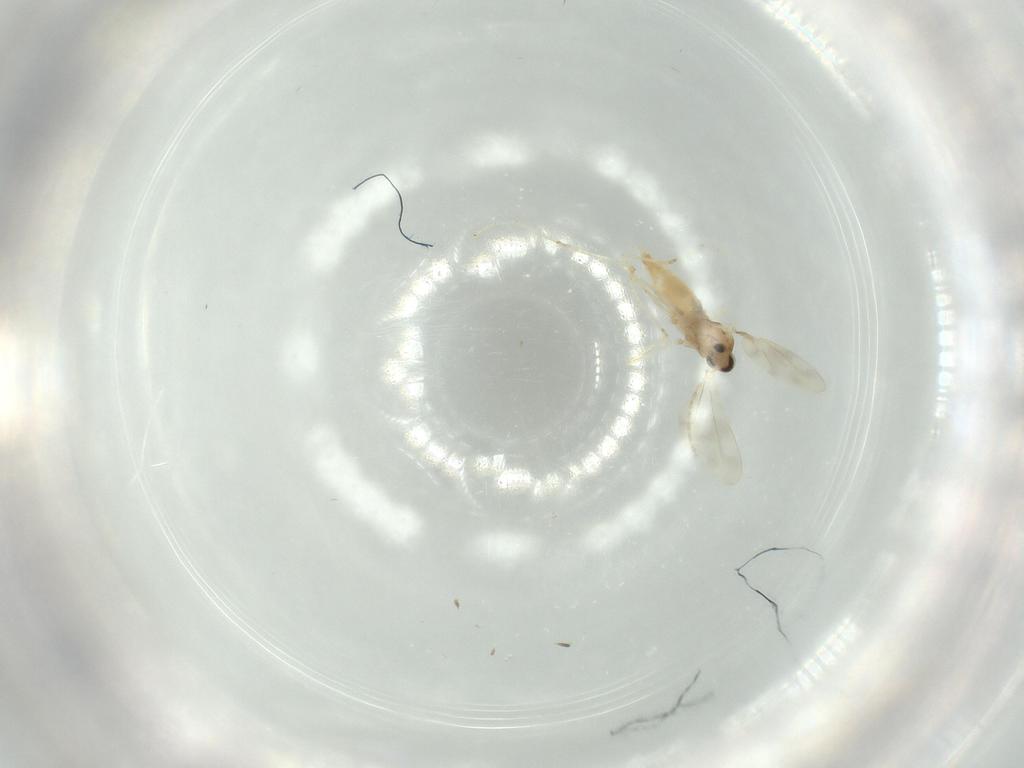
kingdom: Animalia
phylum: Arthropoda
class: Insecta
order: Diptera
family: Cecidomyiidae
